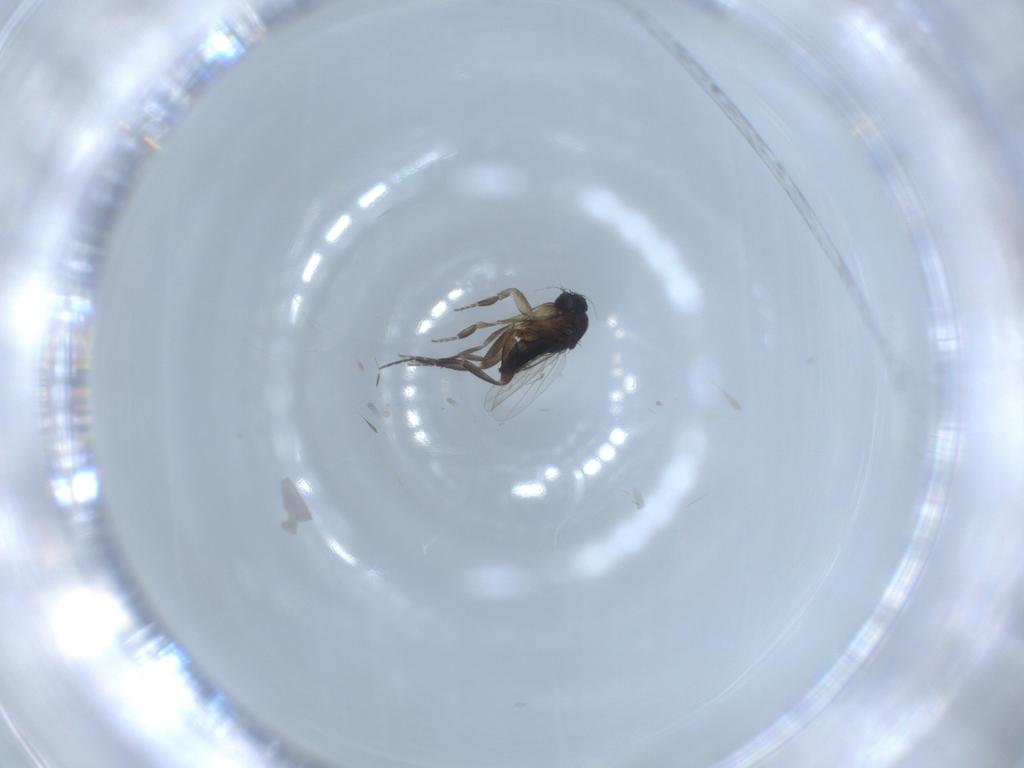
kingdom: Animalia
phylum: Arthropoda
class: Insecta
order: Diptera
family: Phoridae
